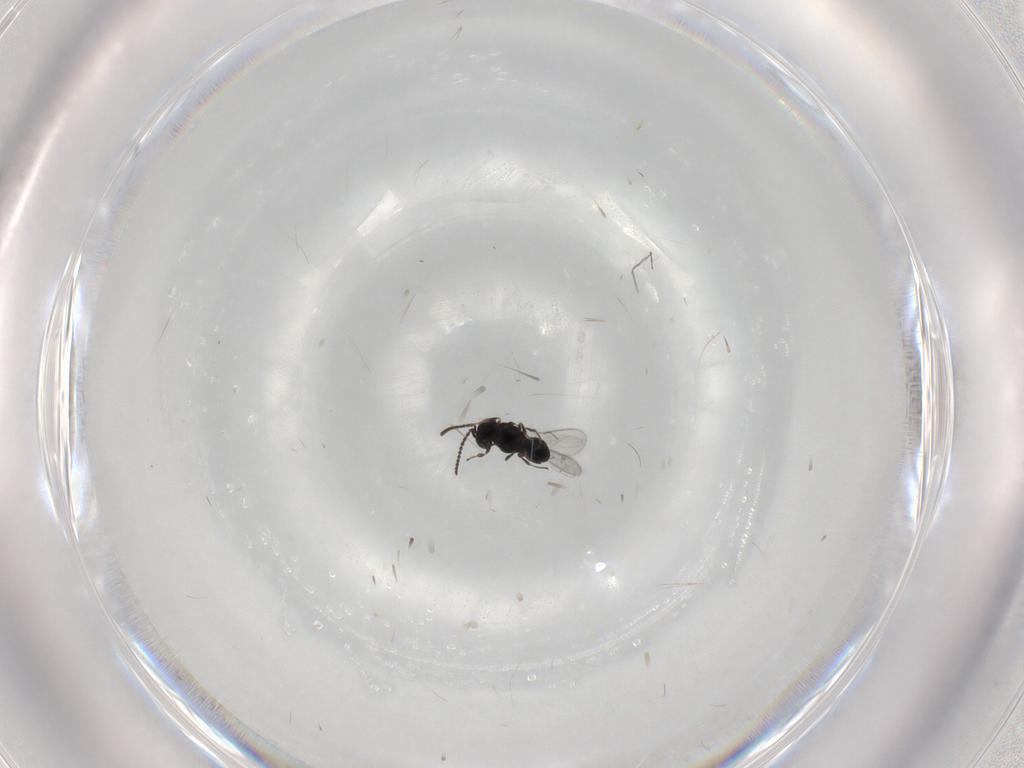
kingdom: Animalia
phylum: Arthropoda
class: Insecta
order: Hymenoptera
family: Scelionidae
